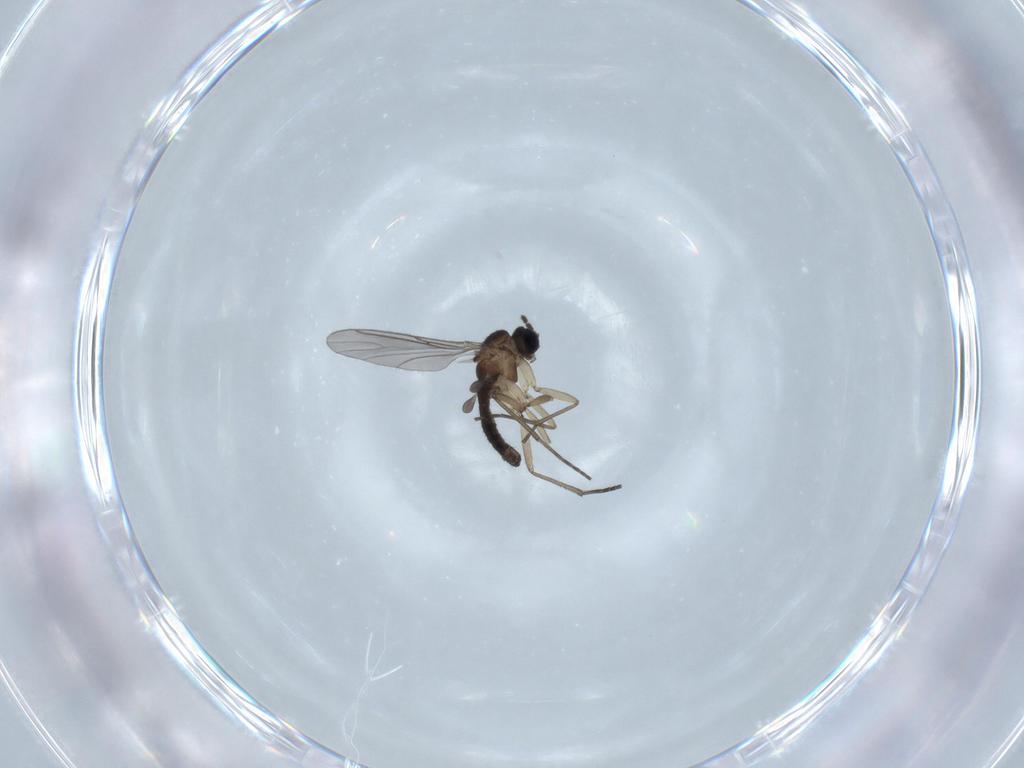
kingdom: Animalia
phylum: Arthropoda
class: Insecta
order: Diptera
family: Sciaridae
